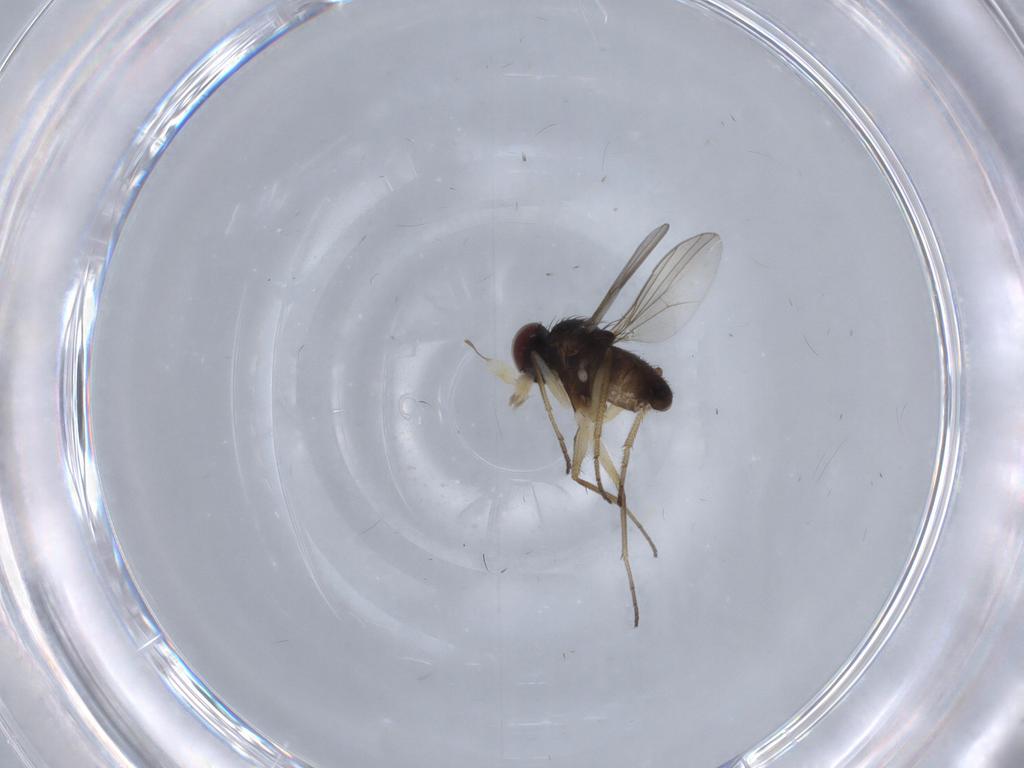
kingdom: Animalia
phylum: Arthropoda
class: Insecta
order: Diptera
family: Dolichopodidae
